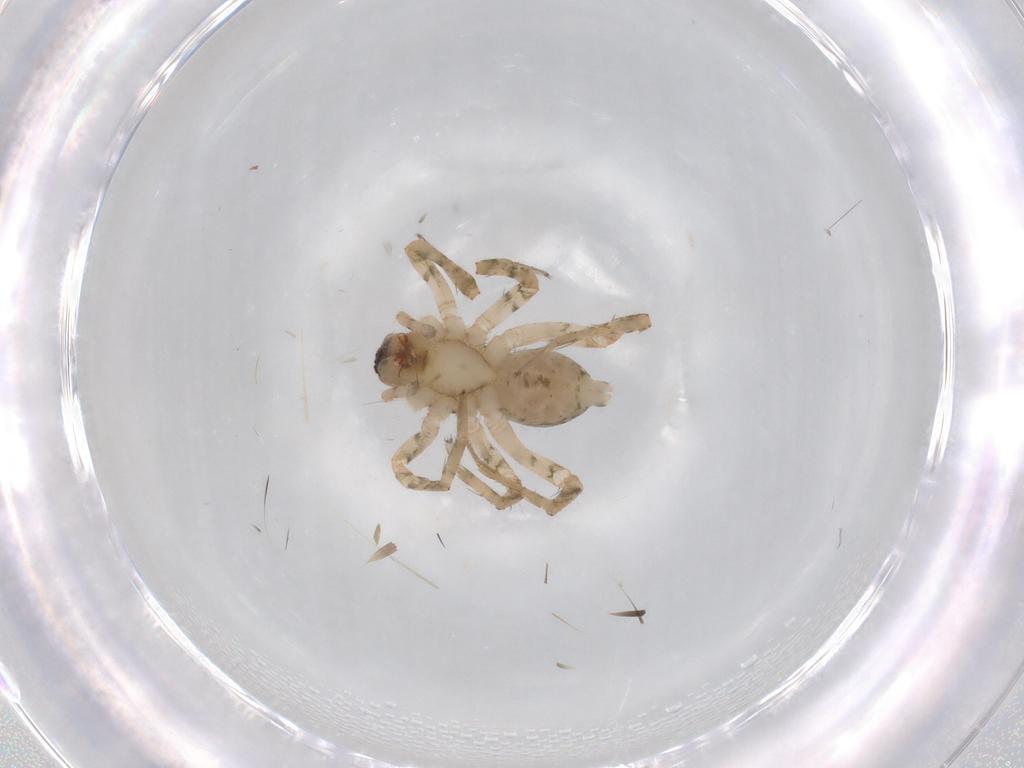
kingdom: Animalia
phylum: Arthropoda
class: Arachnida
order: Araneae
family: Anyphaenidae
